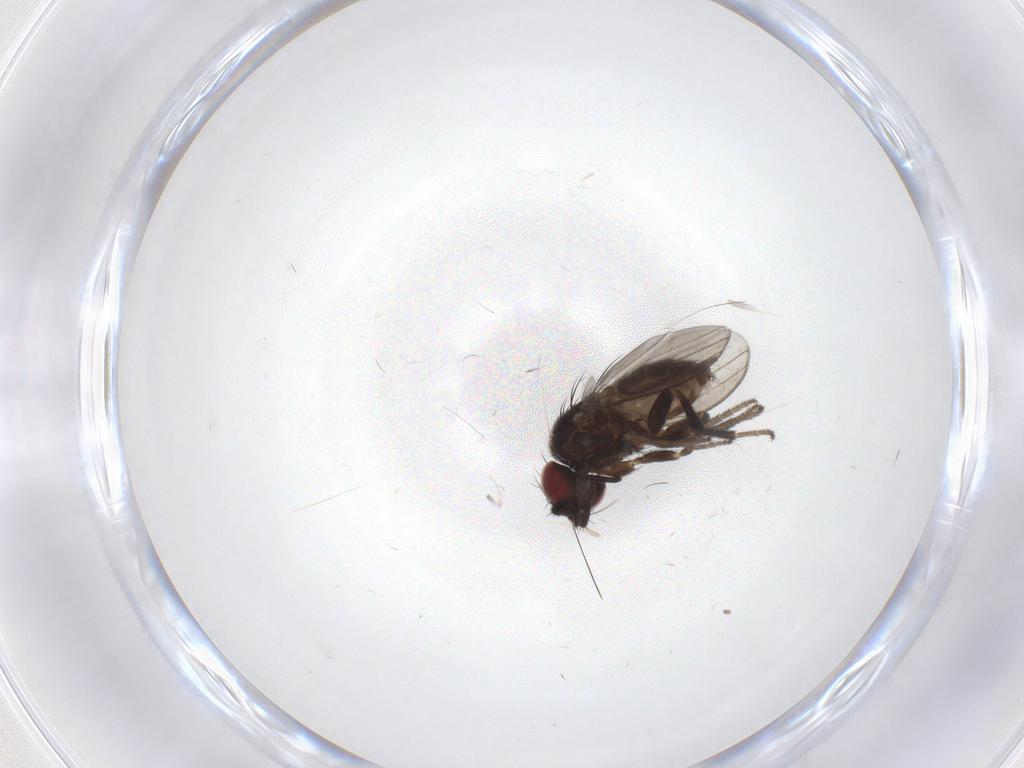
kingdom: Animalia
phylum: Arthropoda
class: Insecta
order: Diptera
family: Milichiidae
